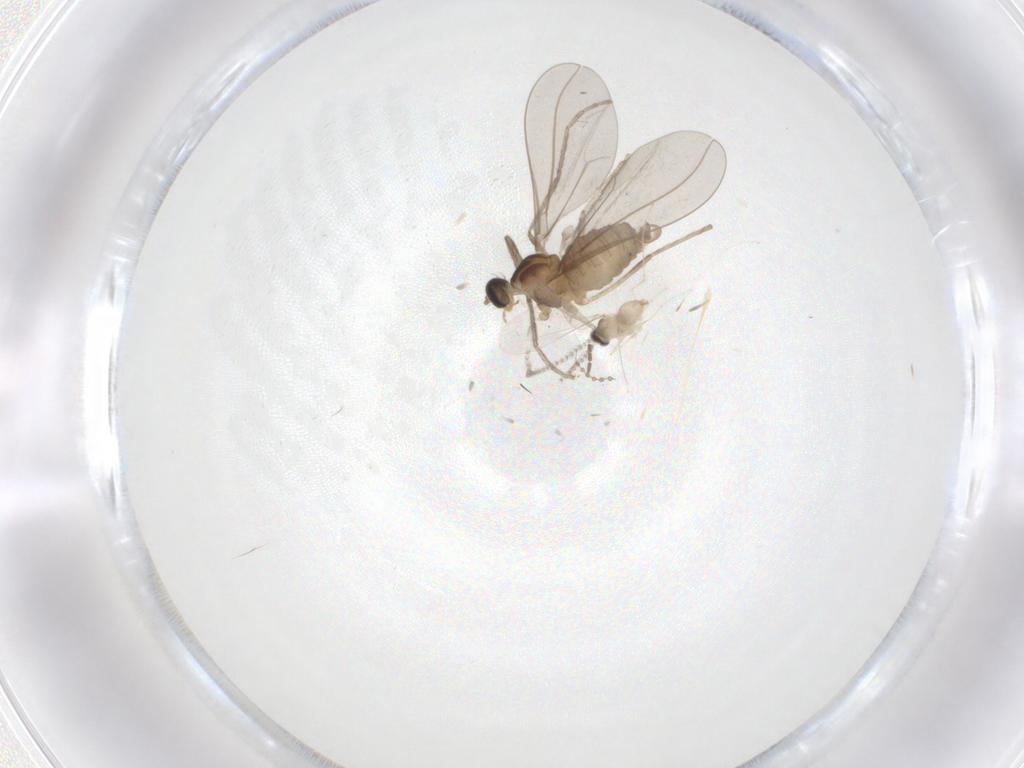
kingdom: Animalia
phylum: Arthropoda
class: Insecta
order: Diptera
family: Cecidomyiidae
